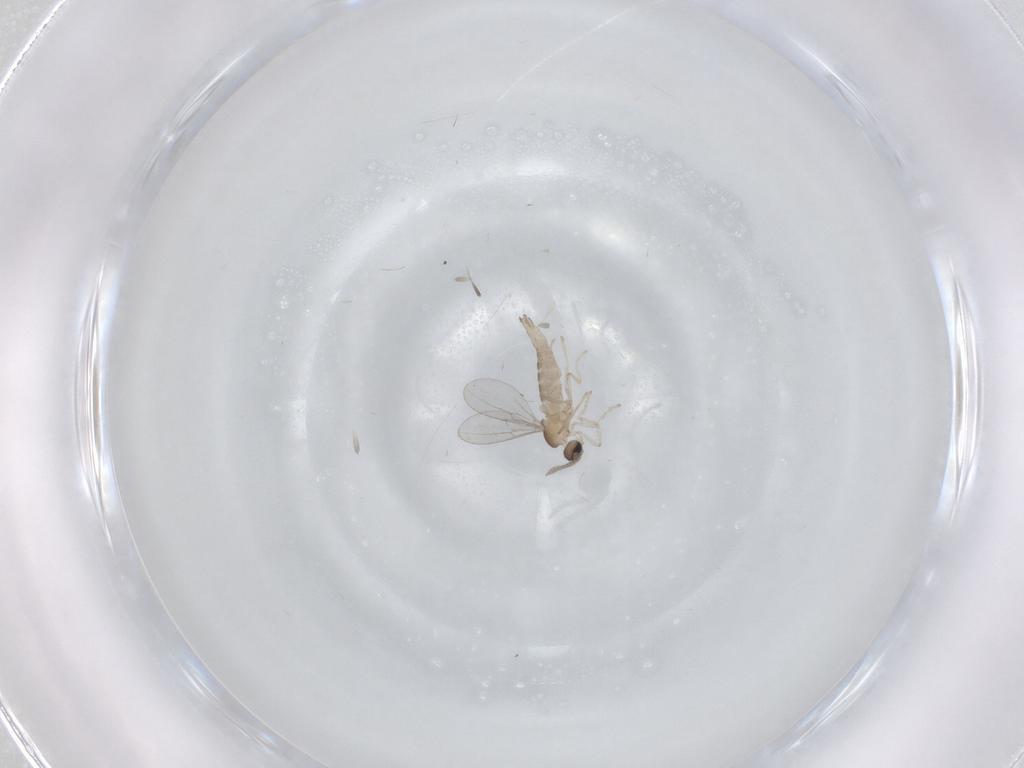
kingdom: Animalia
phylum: Arthropoda
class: Insecta
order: Diptera
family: Cecidomyiidae
